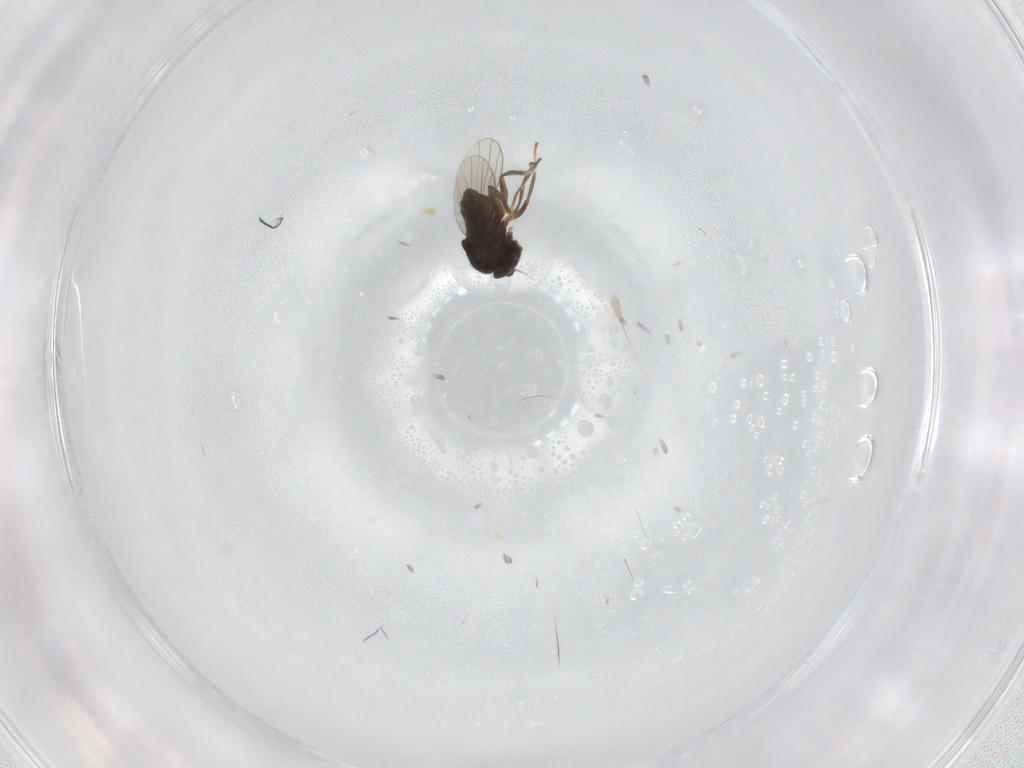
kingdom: Animalia
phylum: Arthropoda
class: Insecta
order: Diptera
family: Dolichopodidae
